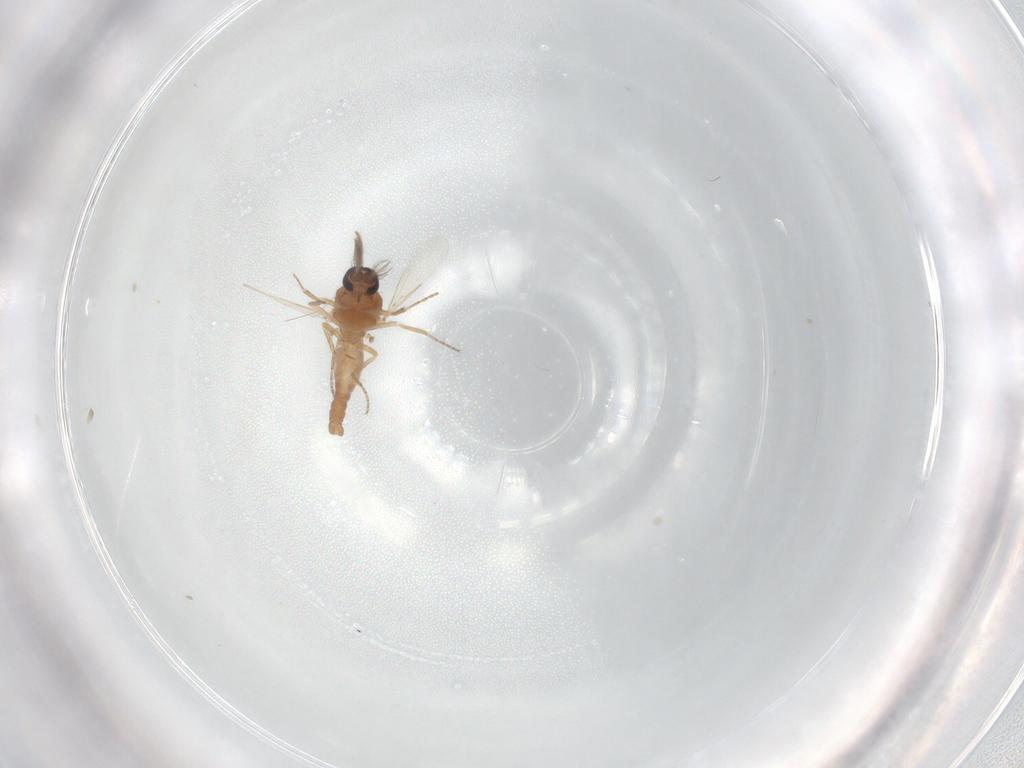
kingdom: Animalia
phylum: Arthropoda
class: Insecta
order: Diptera
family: Ceratopogonidae
